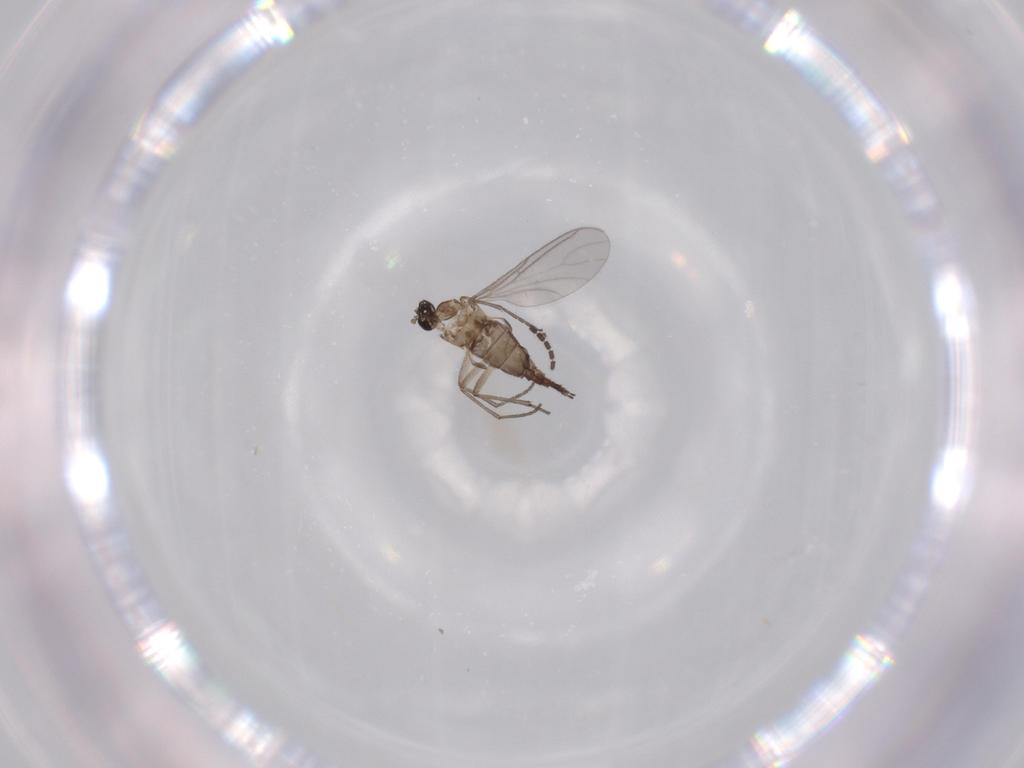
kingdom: Animalia
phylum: Arthropoda
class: Insecta
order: Diptera
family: Sciaridae
